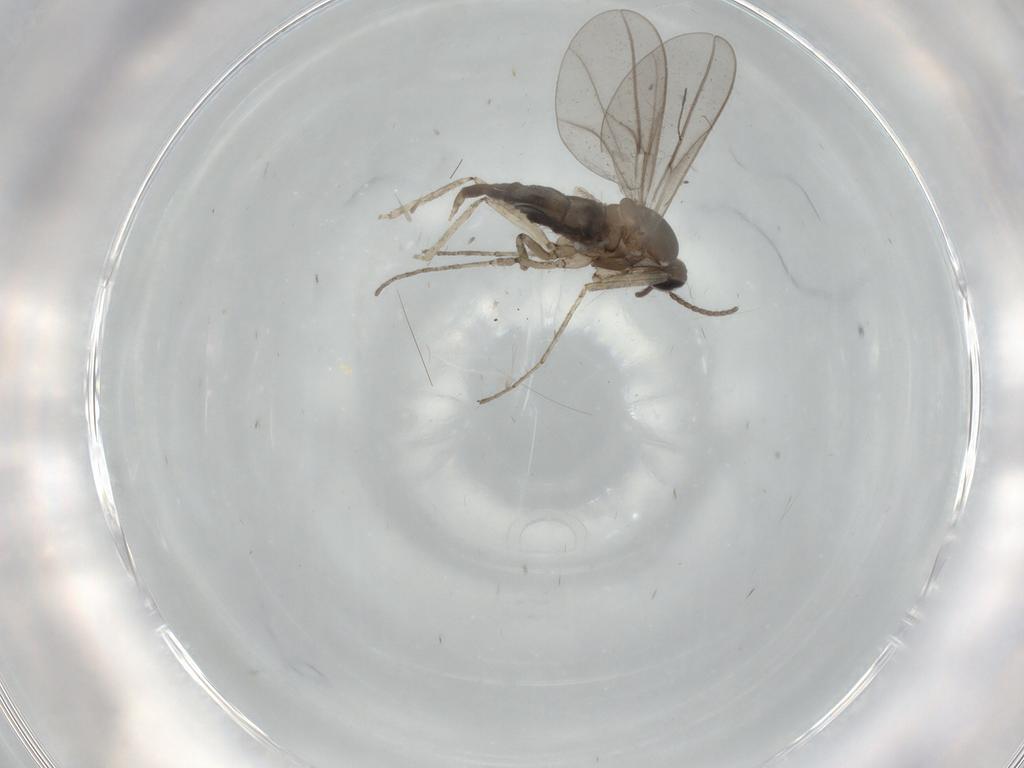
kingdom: Animalia
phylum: Arthropoda
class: Insecta
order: Diptera
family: Cecidomyiidae
